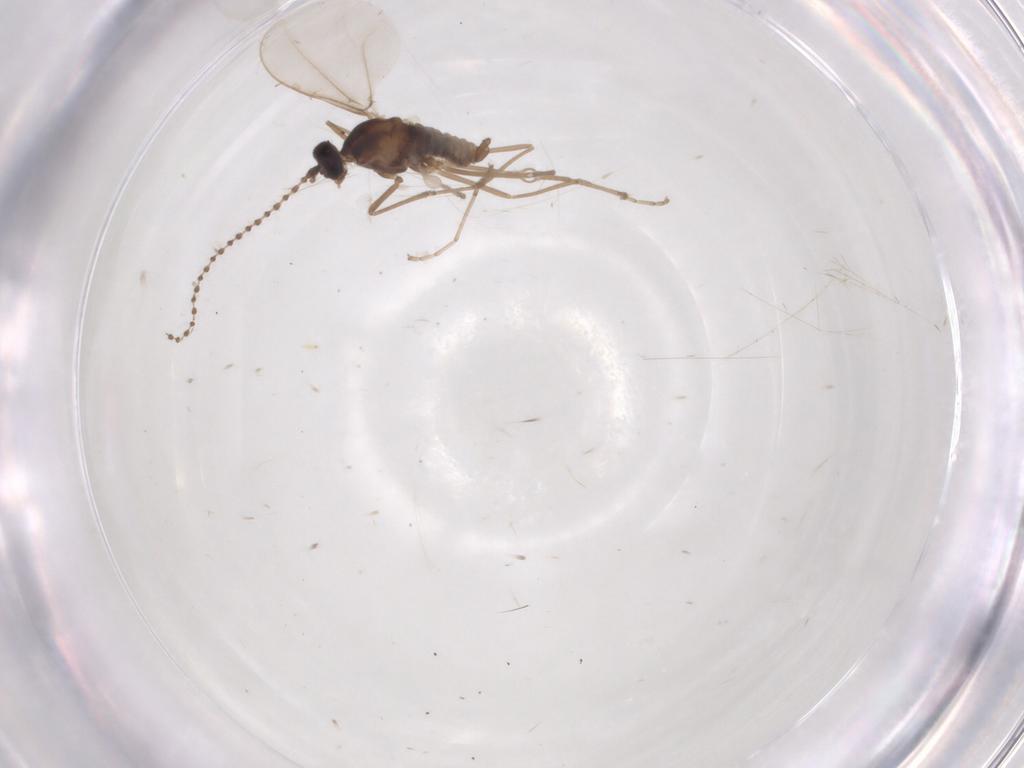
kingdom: Animalia
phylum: Arthropoda
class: Insecta
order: Diptera
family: Cecidomyiidae
